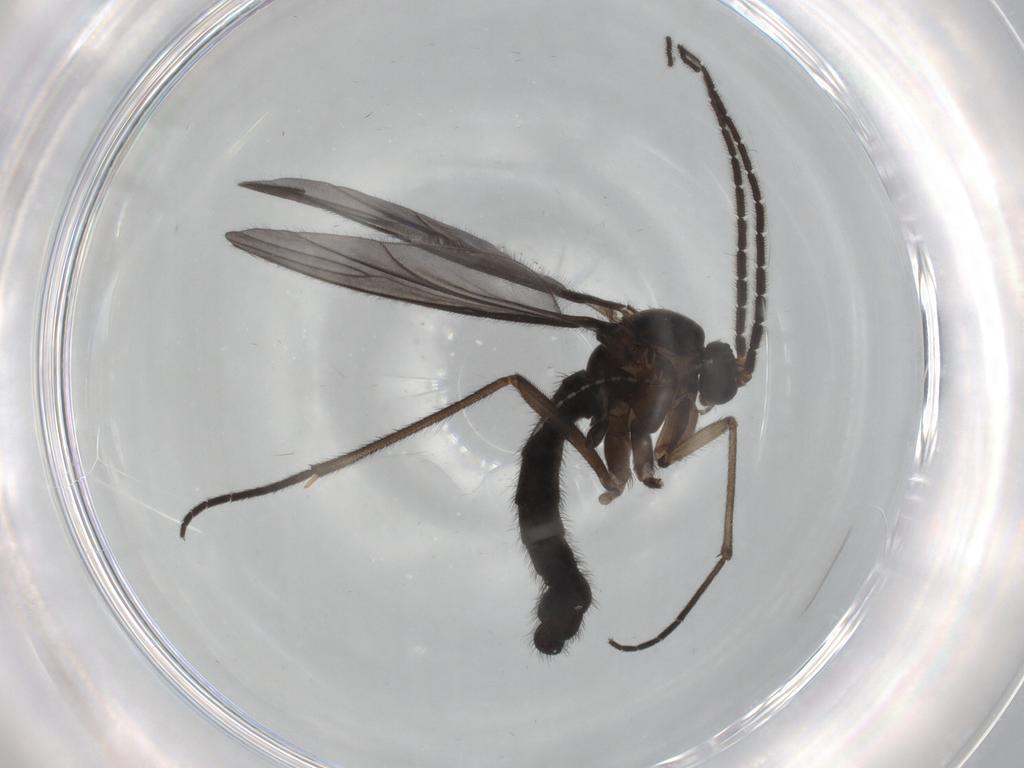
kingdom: Animalia
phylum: Arthropoda
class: Insecta
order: Diptera
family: Sciaridae
